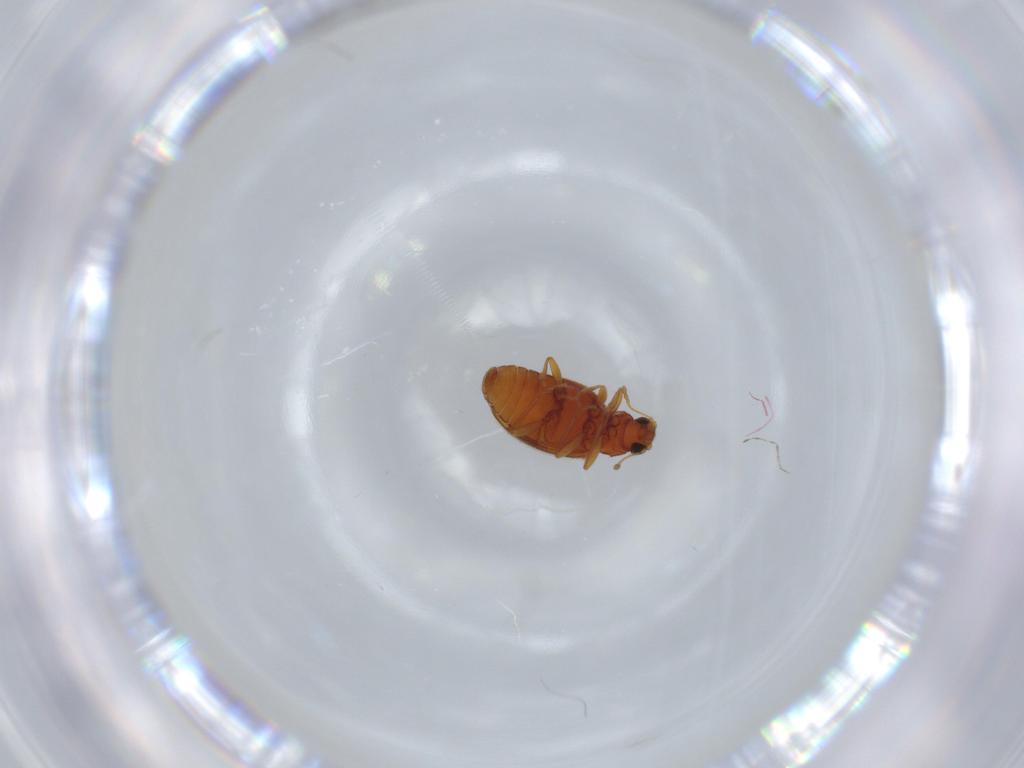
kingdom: Animalia
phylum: Arthropoda
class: Insecta
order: Coleoptera
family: Latridiidae
